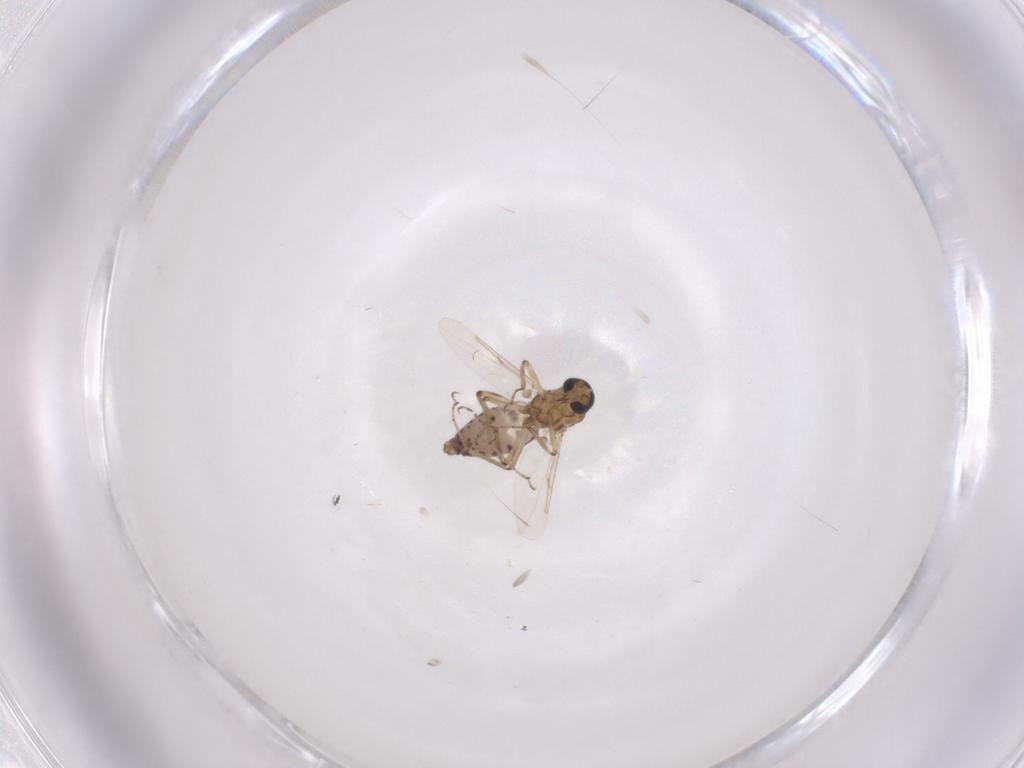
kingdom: Animalia
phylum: Arthropoda
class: Insecta
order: Diptera
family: Ceratopogonidae
